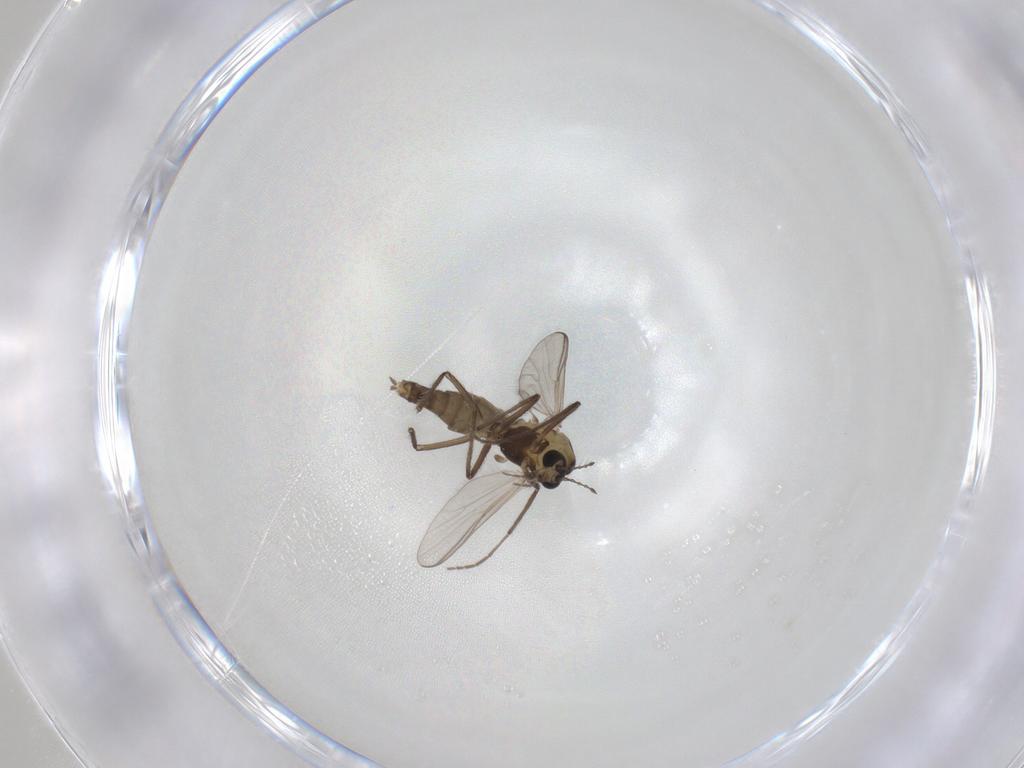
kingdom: Animalia
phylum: Arthropoda
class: Insecta
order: Diptera
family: Chironomidae
